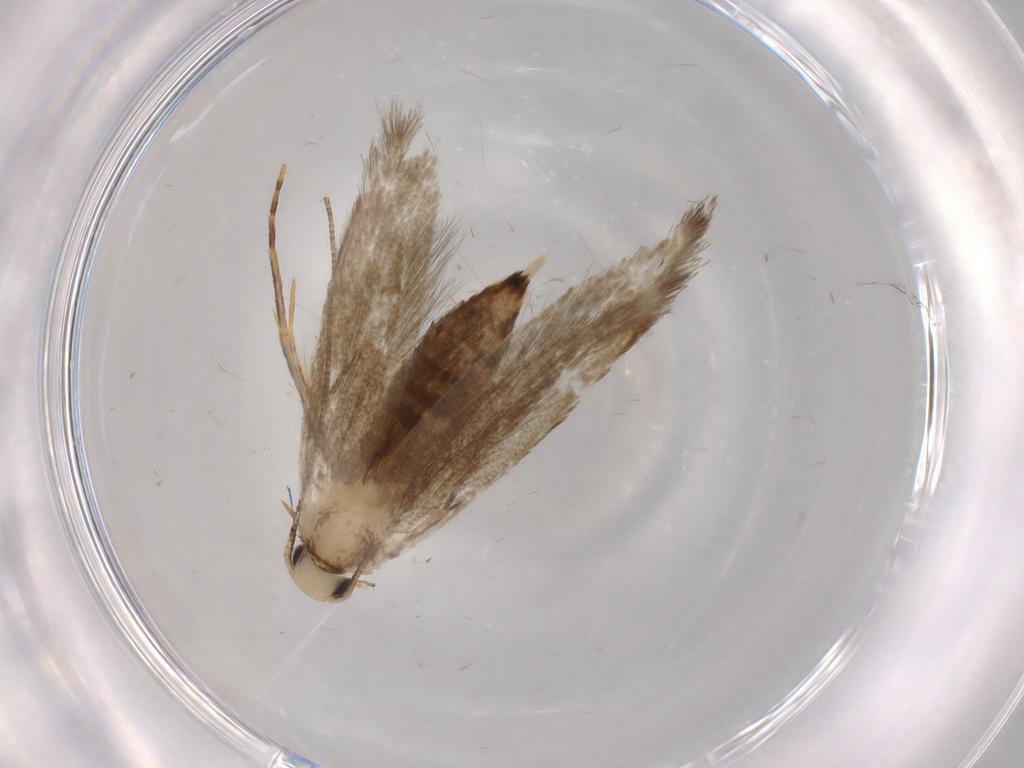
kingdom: Animalia
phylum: Arthropoda
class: Insecta
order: Lepidoptera
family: Tineidae
